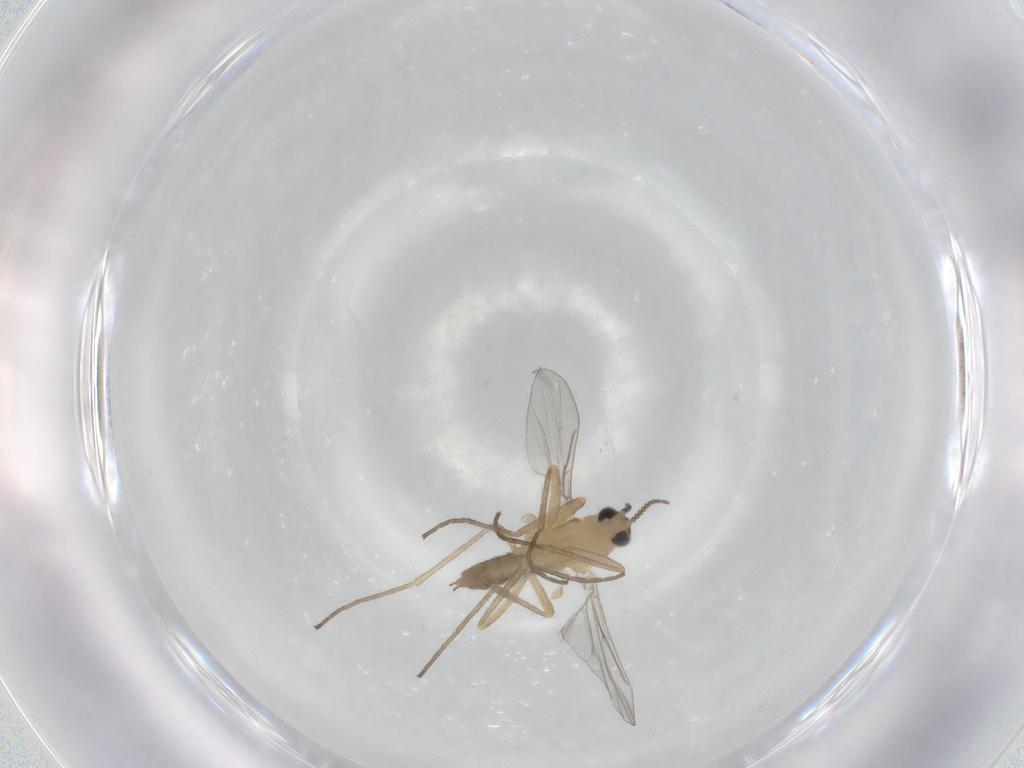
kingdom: Animalia
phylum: Arthropoda
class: Insecta
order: Diptera
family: Cecidomyiidae
